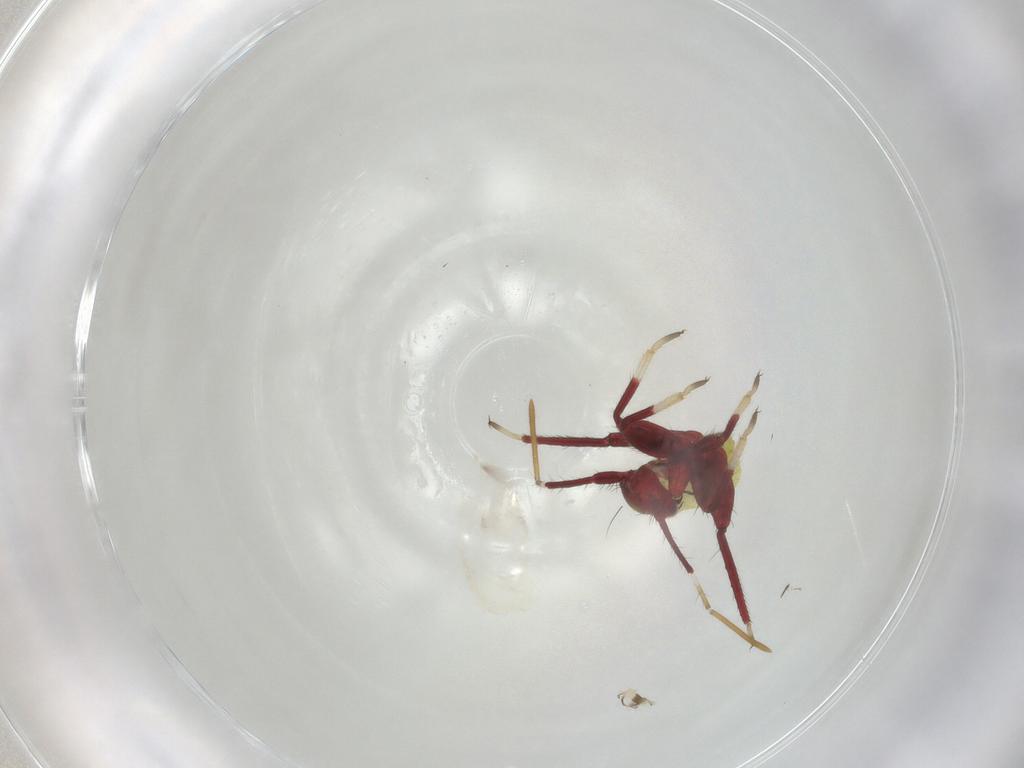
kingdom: Animalia
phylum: Arthropoda
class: Insecta
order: Hemiptera
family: Miridae
